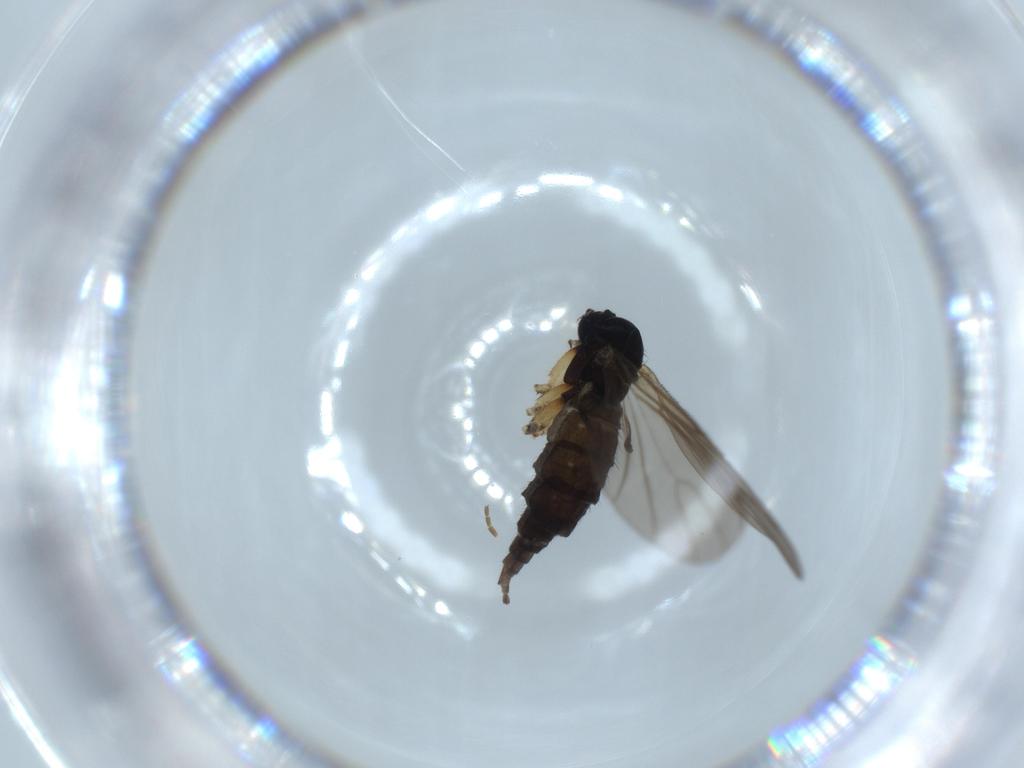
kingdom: Animalia
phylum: Arthropoda
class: Insecta
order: Diptera
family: Sciaridae
